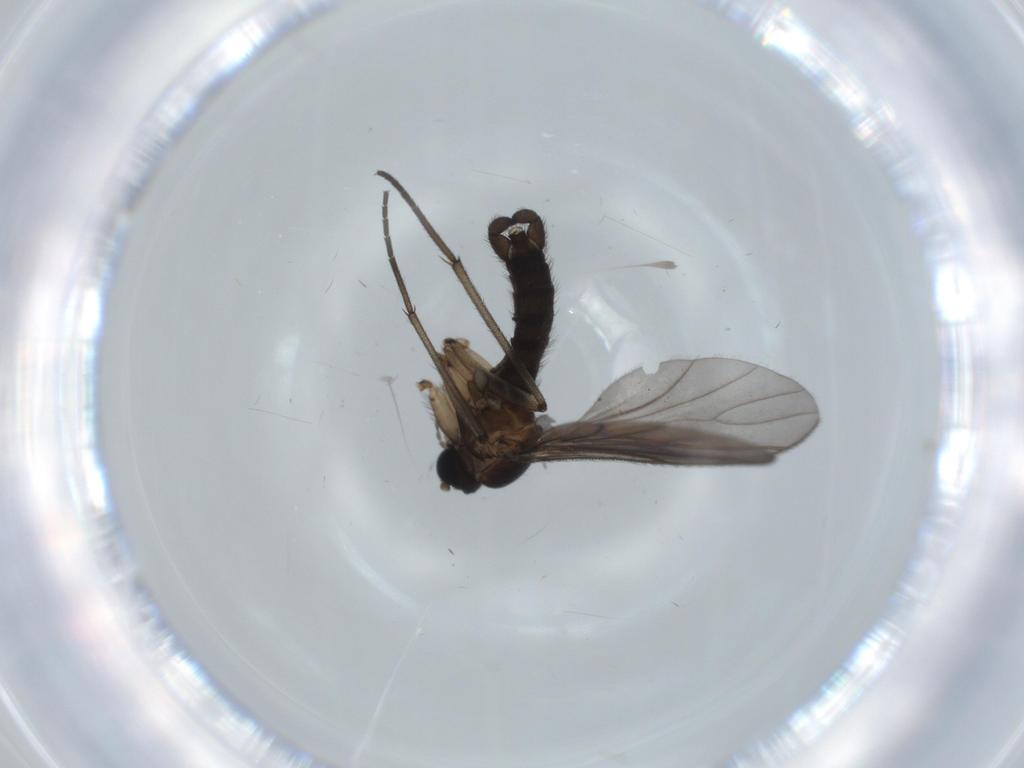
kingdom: Animalia
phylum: Arthropoda
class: Insecta
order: Diptera
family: Sciaridae
